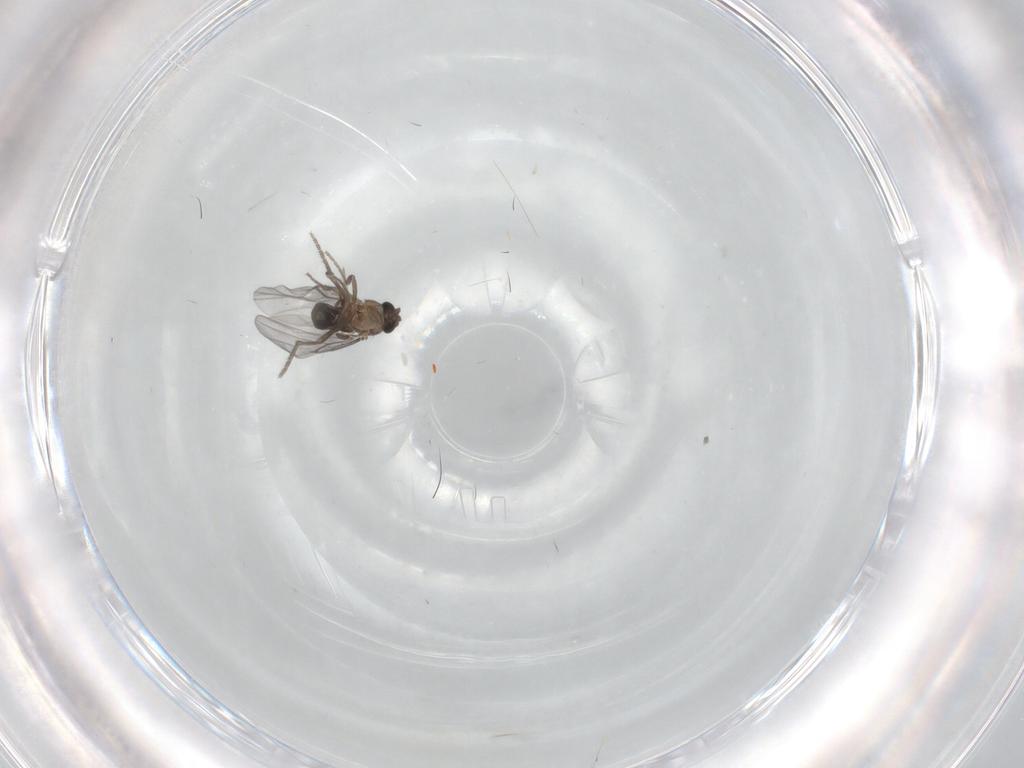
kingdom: Animalia
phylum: Arthropoda
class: Insecta
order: Diptera
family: Phoridae
